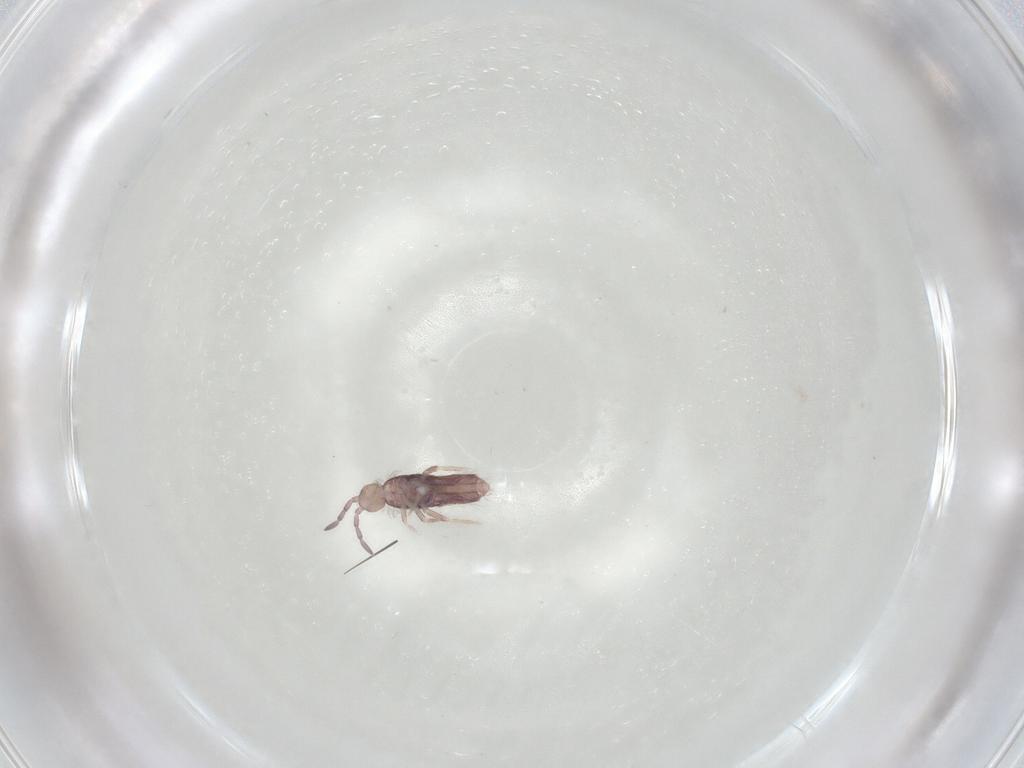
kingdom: Animalia
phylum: Arthropoda
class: Collembola
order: Entomobryomorpha
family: Entomobryidae
